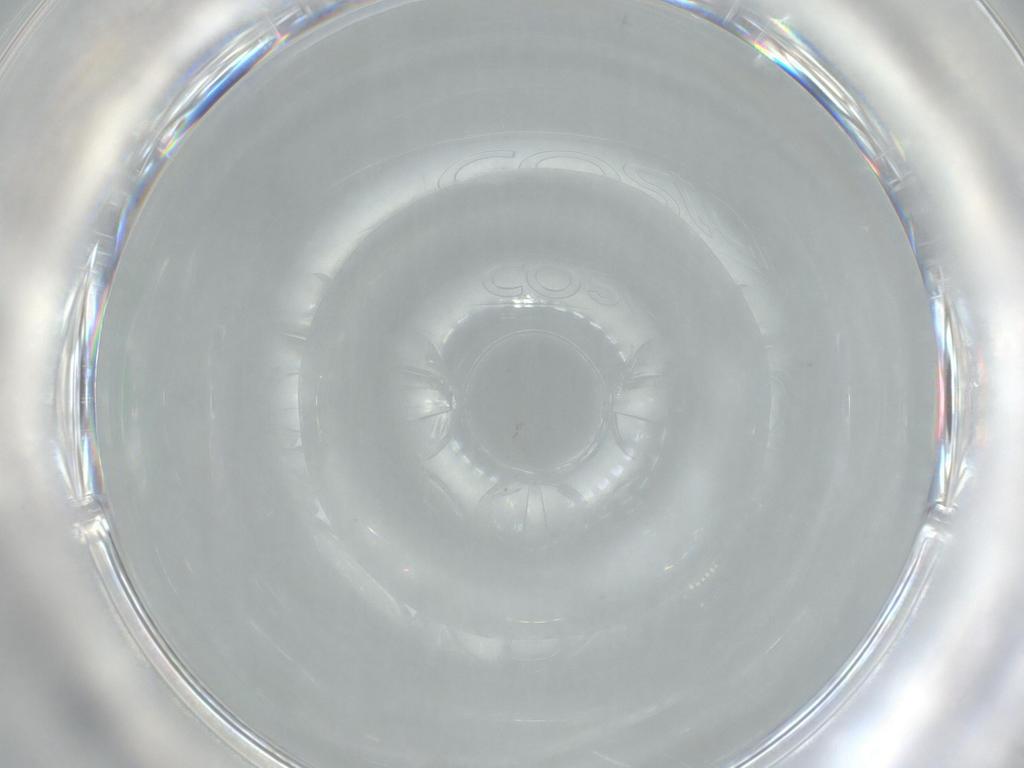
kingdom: Animalia
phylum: Arthropoda
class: Insecta
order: Diptera
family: Sciaridae
